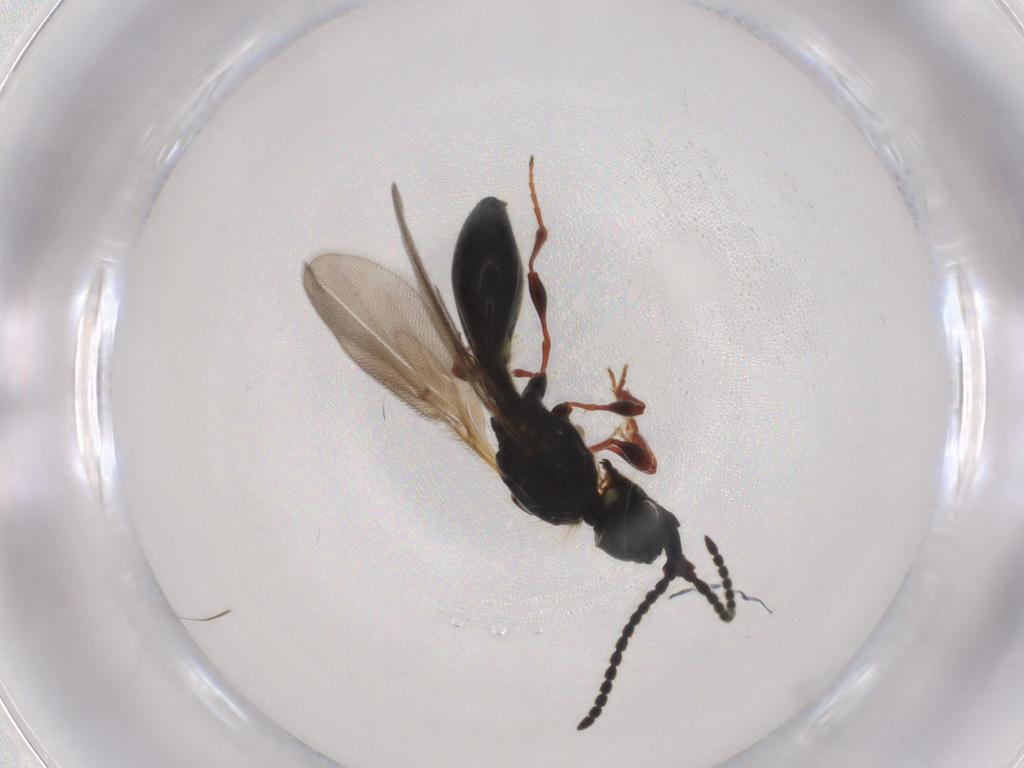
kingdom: Animalia
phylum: Arthropoda
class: Insecta
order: Hymenoptera
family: Diapriidae
